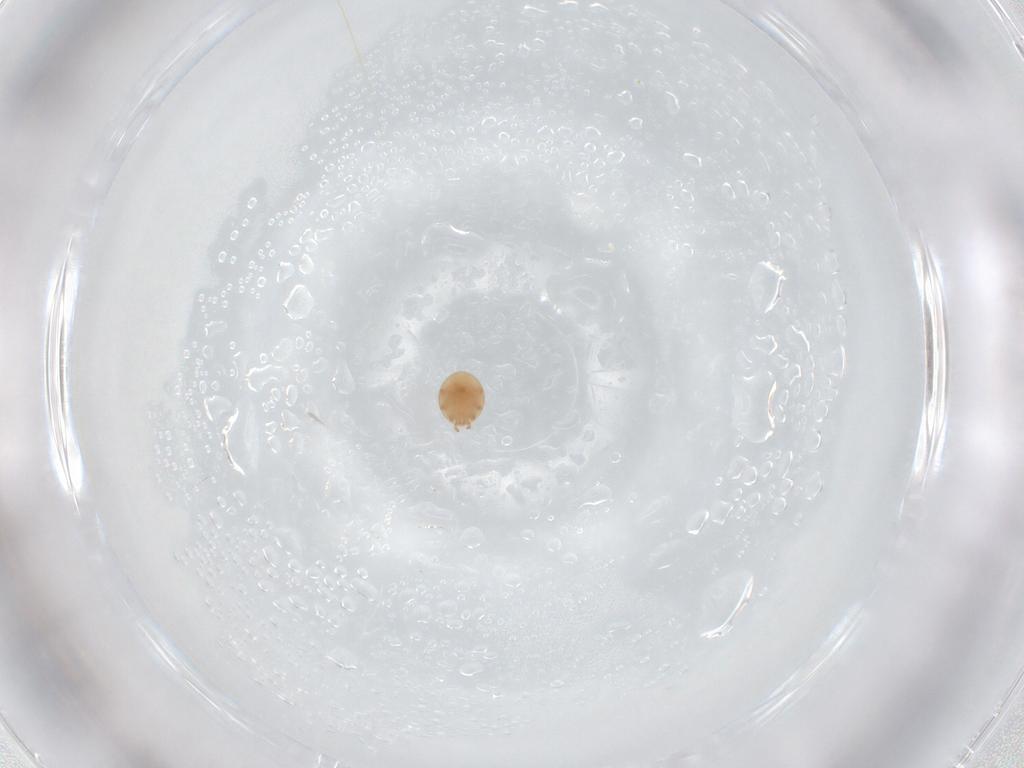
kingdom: Animalia
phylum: Arthropoda
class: Arachnida
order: Mesostigmata
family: Trematuridae
